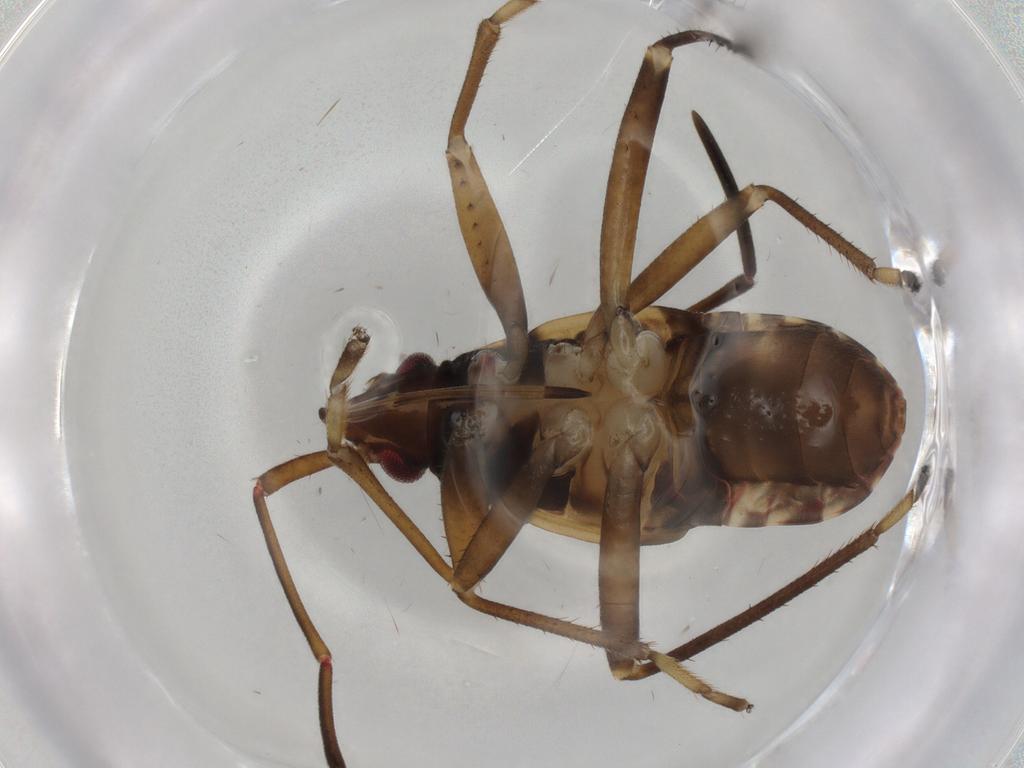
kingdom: Animalia
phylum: Arthropoda
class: Insecta
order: Hemiptera
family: Rhyparochromidae
